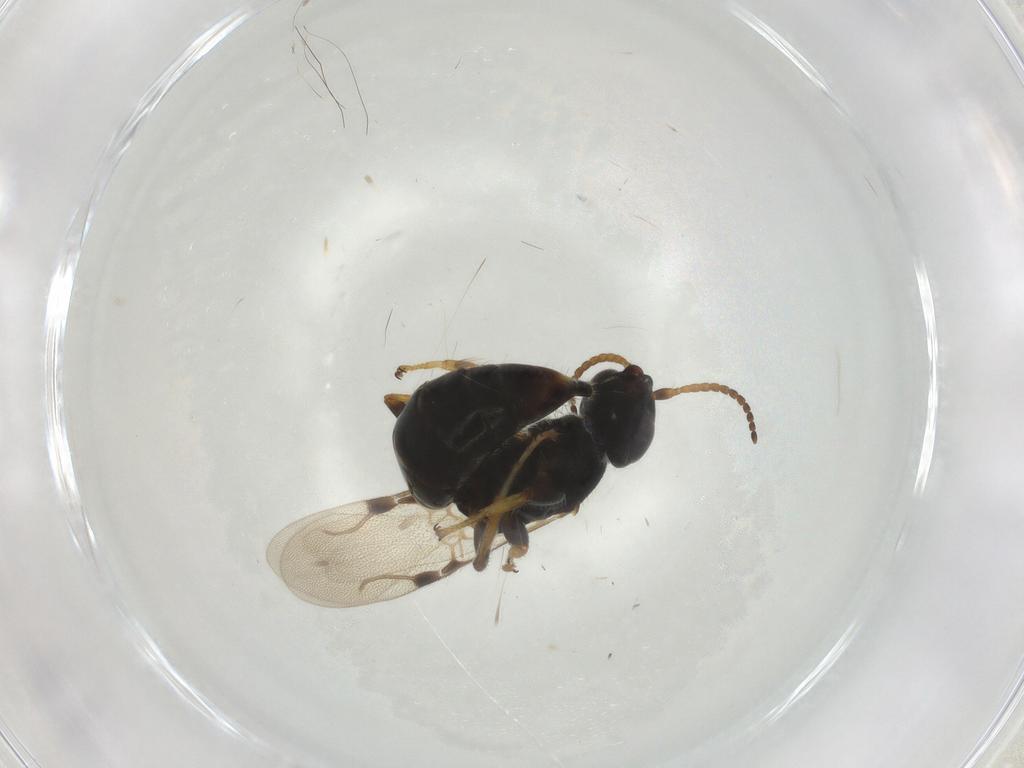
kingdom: Animalia
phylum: Arthropoda
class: Insecta
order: Hymenoptera
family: Bethylidae
